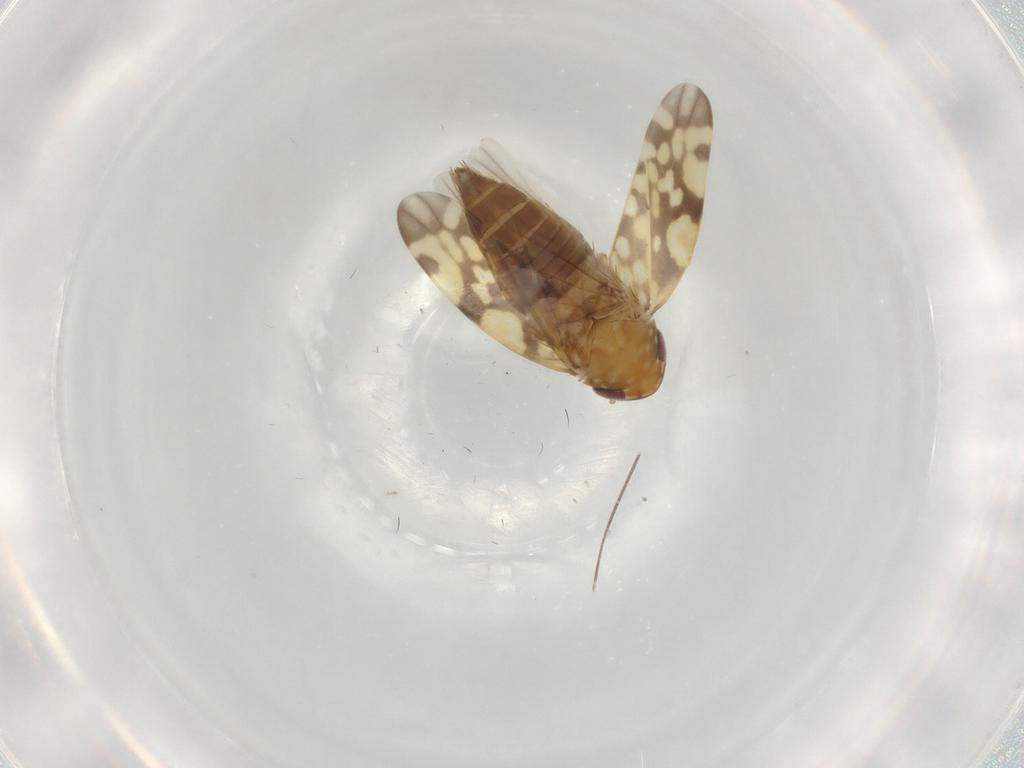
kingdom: Animalia
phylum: Arthropoda
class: Insecta
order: Hemiptera
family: Cicadellidae
